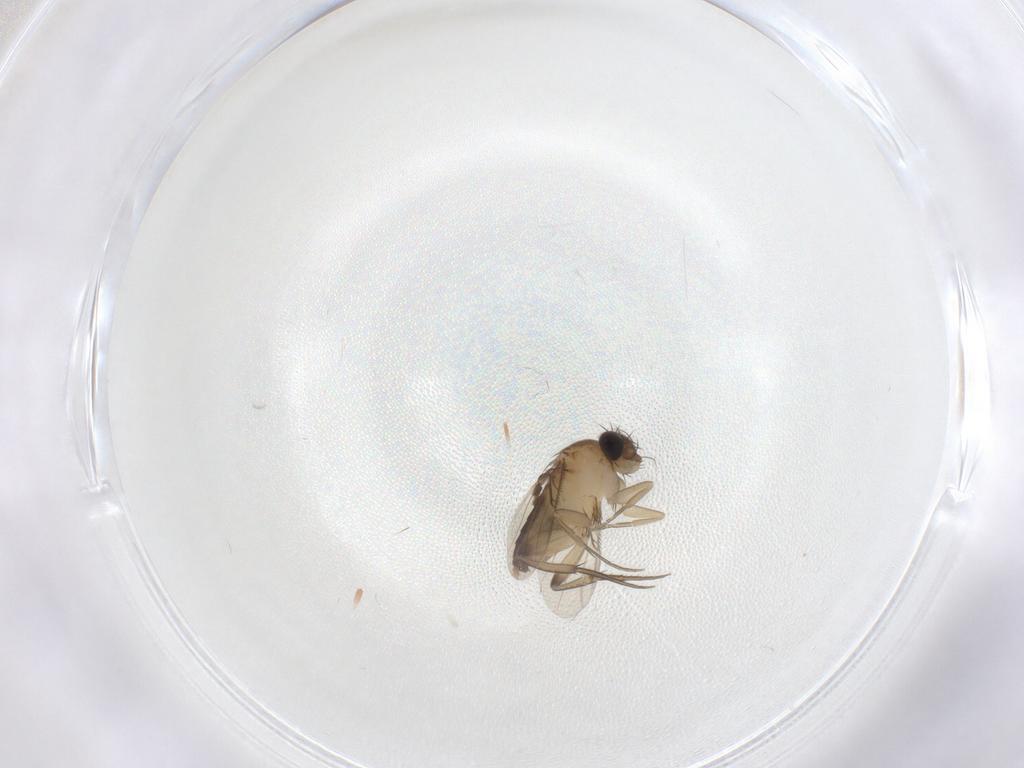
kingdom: Animalia
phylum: Arthropoda
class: Insecta
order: Diptera
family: Phoridae
